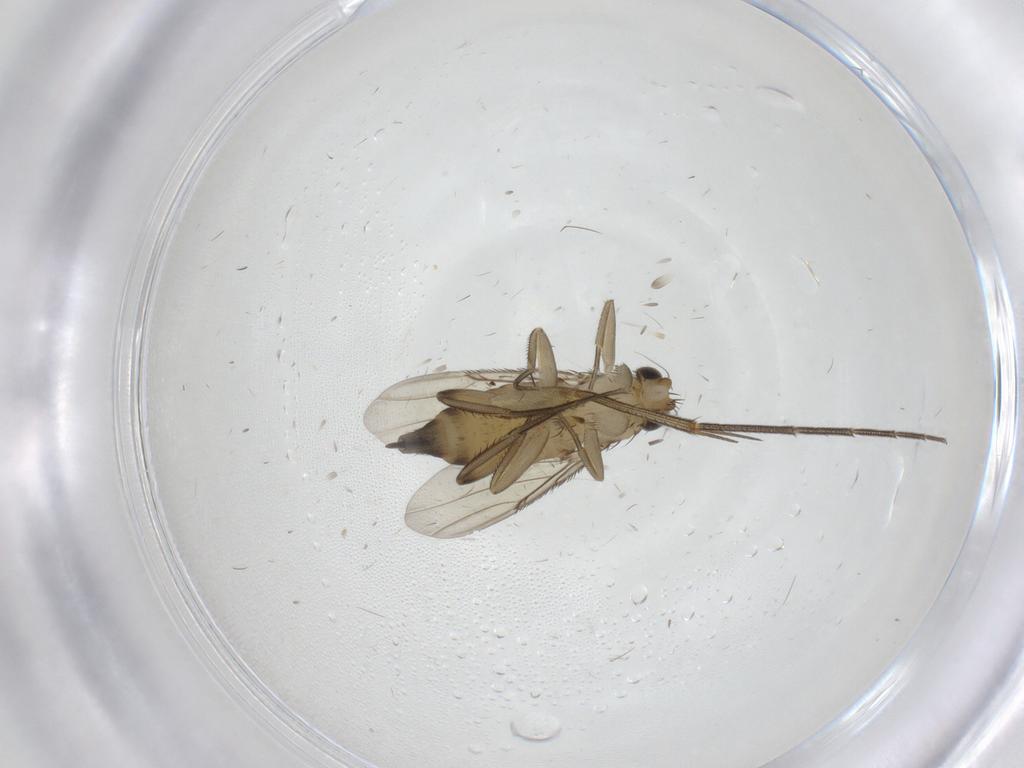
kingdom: Animalia
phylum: Arthropoda
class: Insecta
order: Diptera
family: Phoridae
